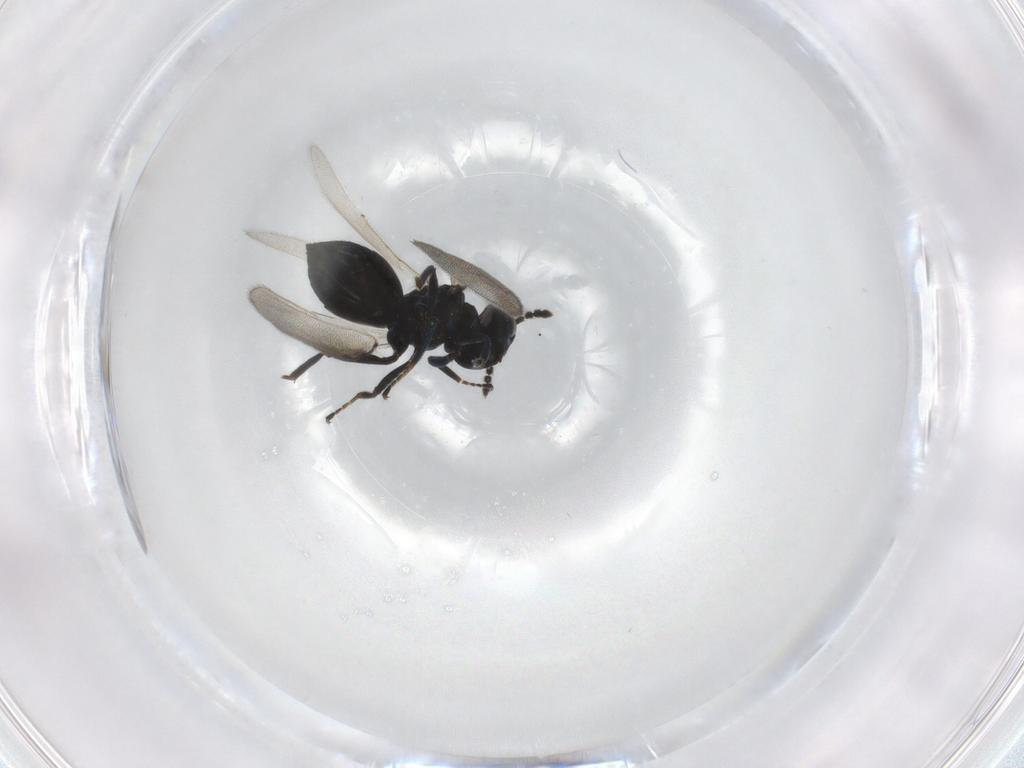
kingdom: Animalia
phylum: Arthropoda
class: Insecta
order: Hymenoptera
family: Eulophidae
